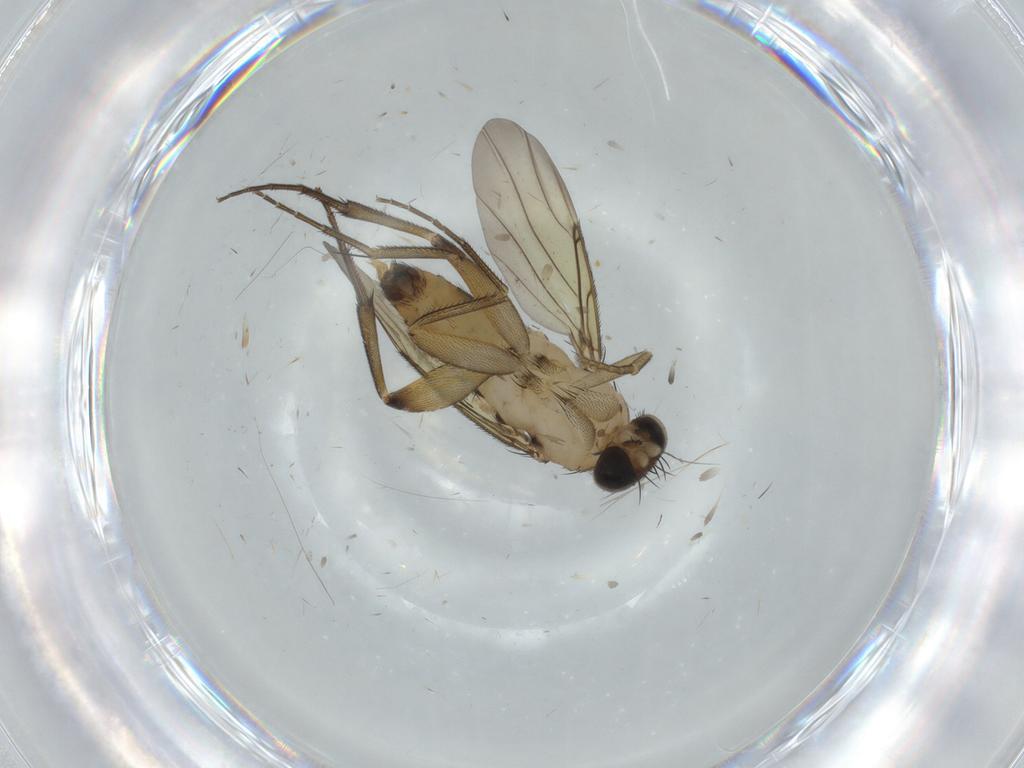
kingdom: Animalia
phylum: Arthropoda
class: Insecta
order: Diptera
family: Phoridae
